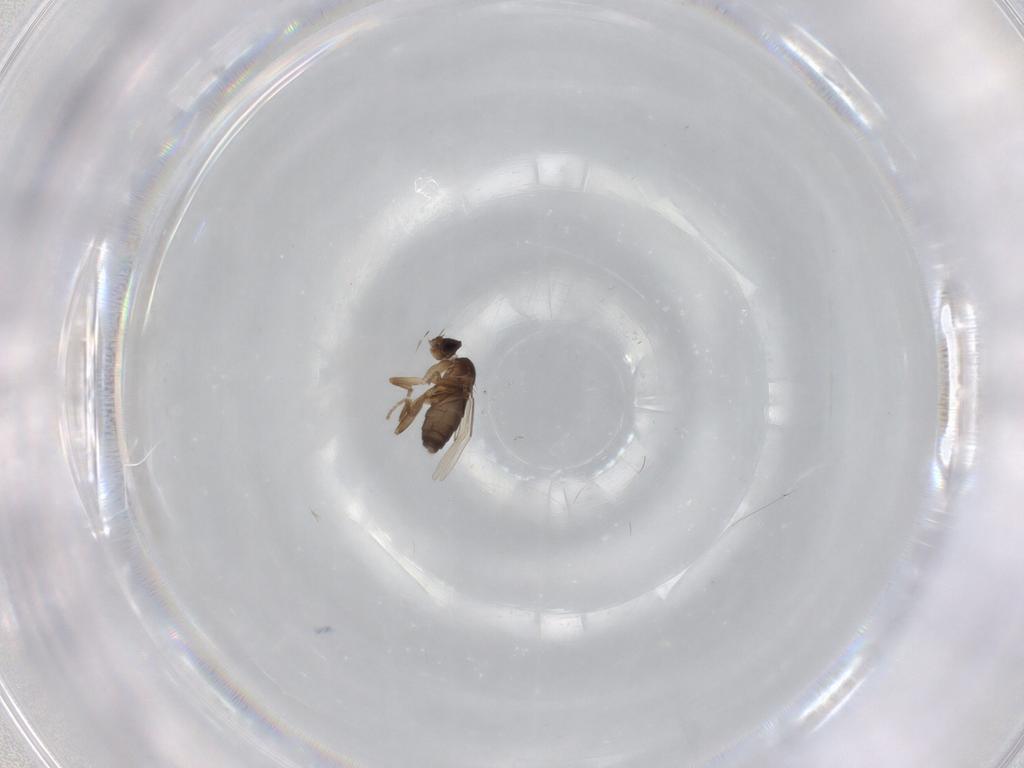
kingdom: Animalia
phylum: Arthropoda
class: Insecta
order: Diptera
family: Phoridae
